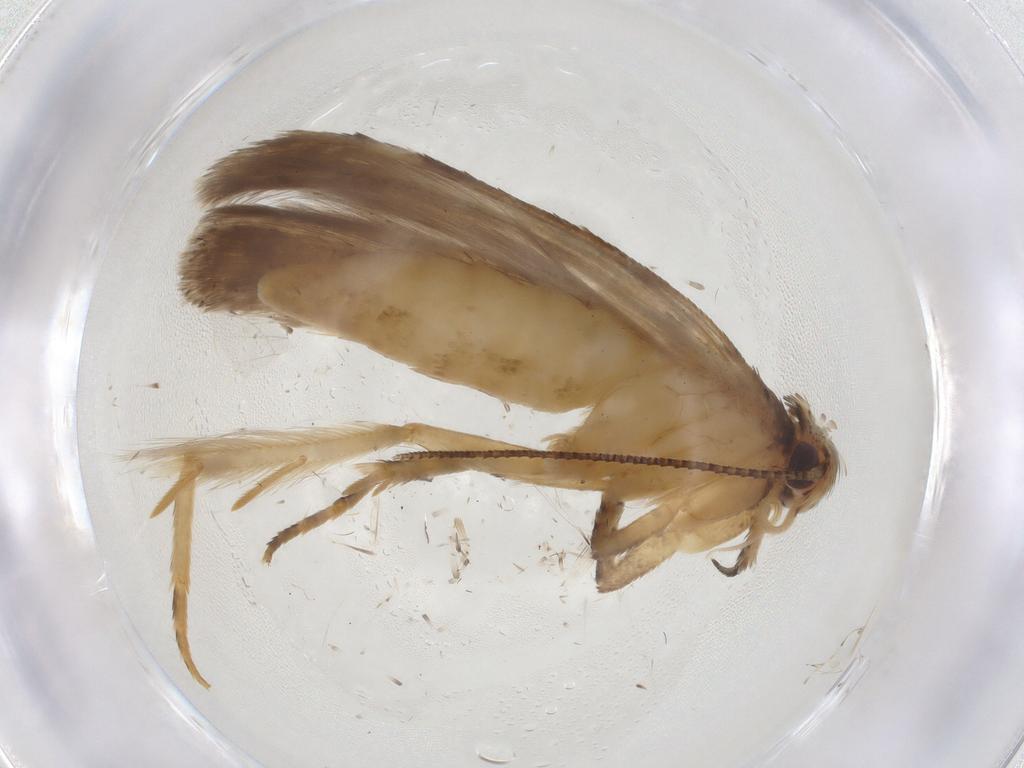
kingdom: Animalia
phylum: Arthropoda
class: Insecta
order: Lepidoptera
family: Gelechiidae
